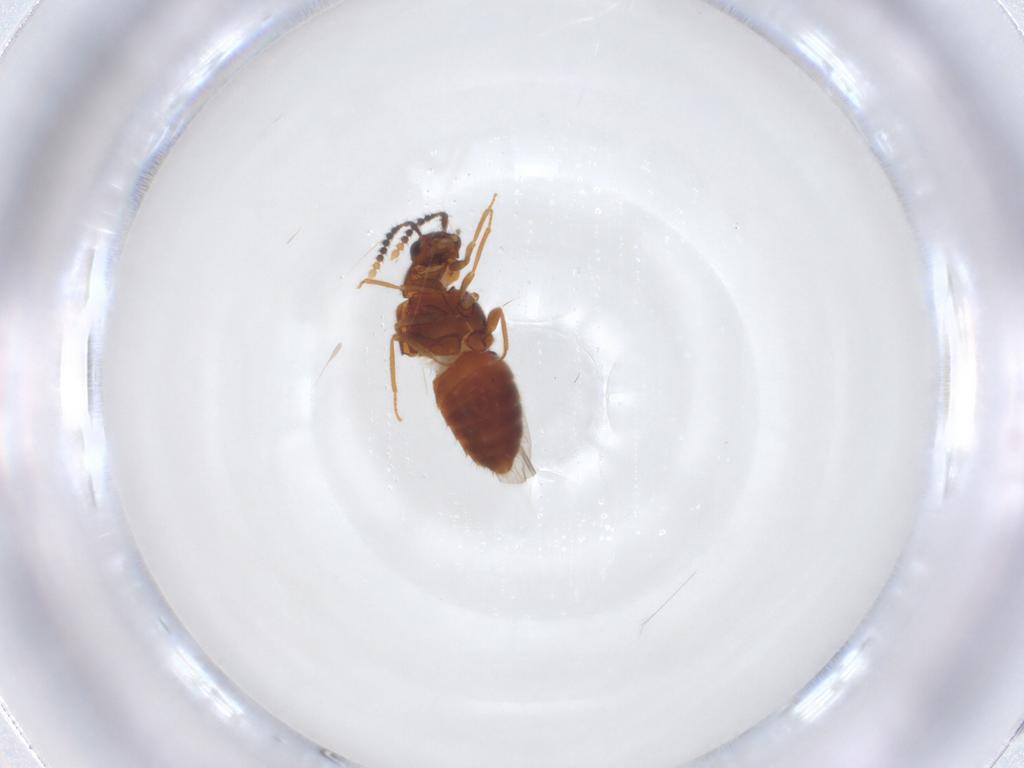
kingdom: Animalia
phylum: Arthropoda
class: Insecta
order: Coleoptera
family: Staphylinidae
